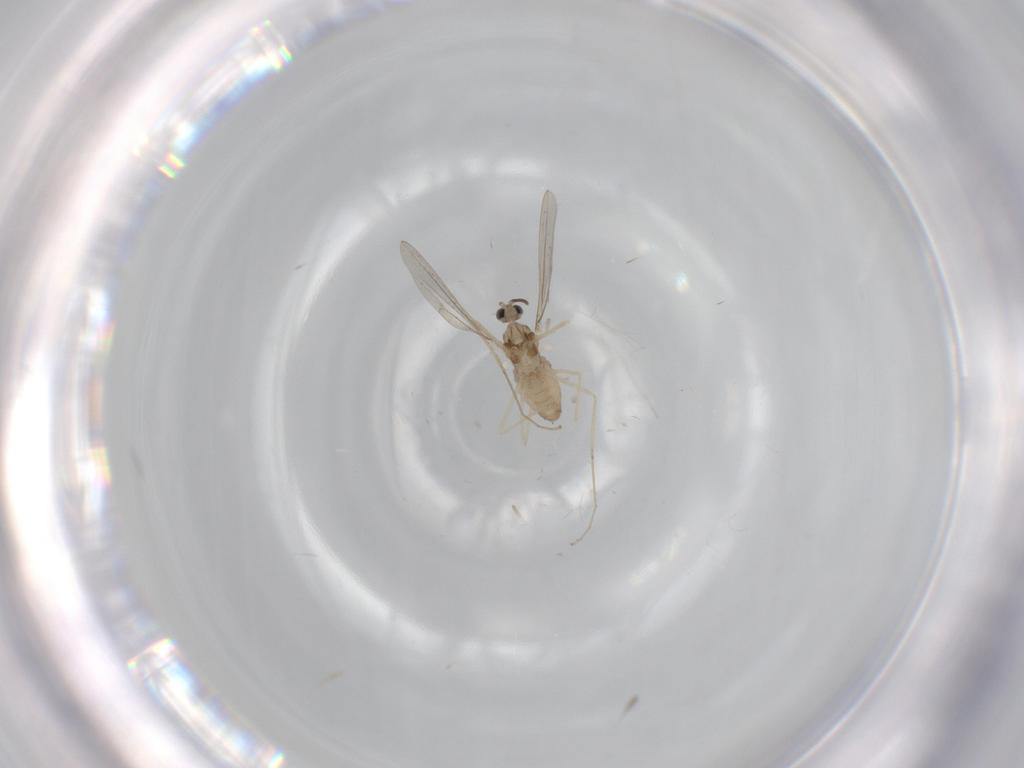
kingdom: Animalia
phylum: Arthropoda
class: Insecta
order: Diptera
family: Cecidomyiidae
